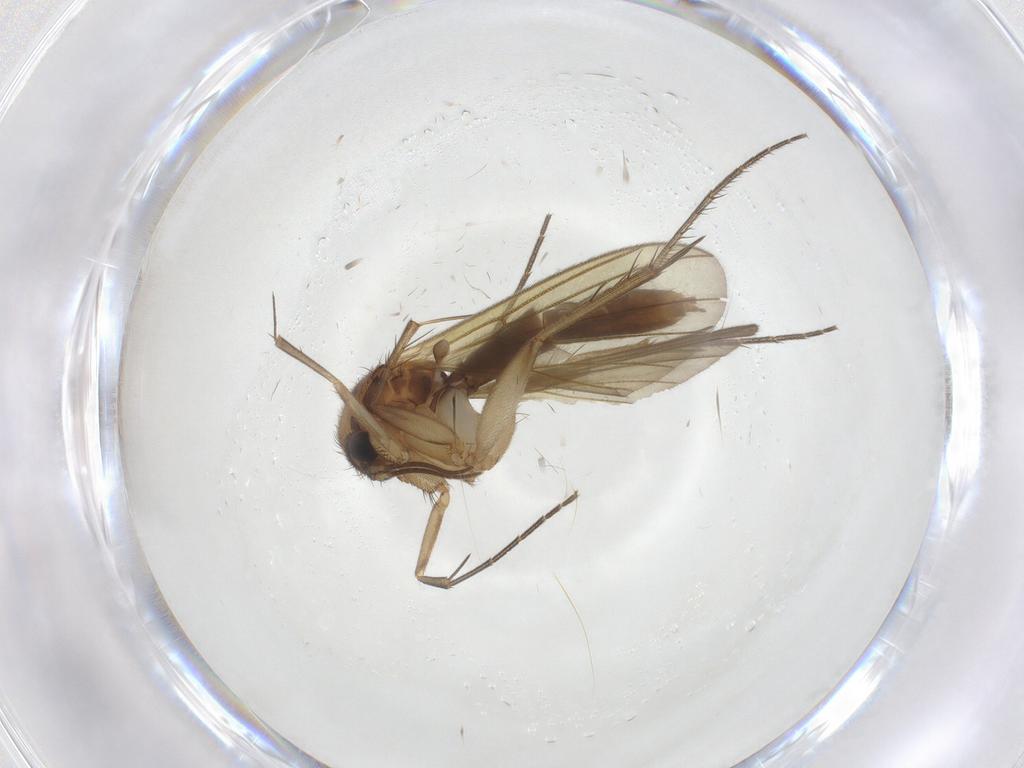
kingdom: Animalia
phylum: Arthropoda
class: Insecta
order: Diptera
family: Mycetophilidae
